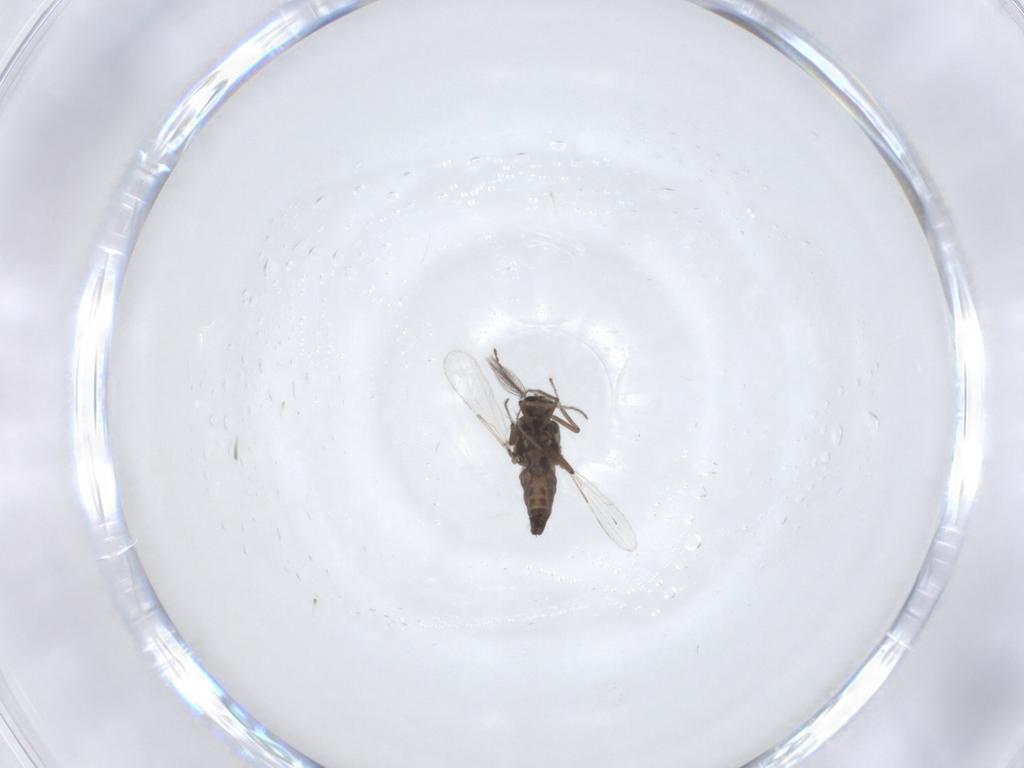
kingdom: Animalia
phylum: Arthropoda
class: Insecta
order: Diptera
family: Ceratopogonidae
